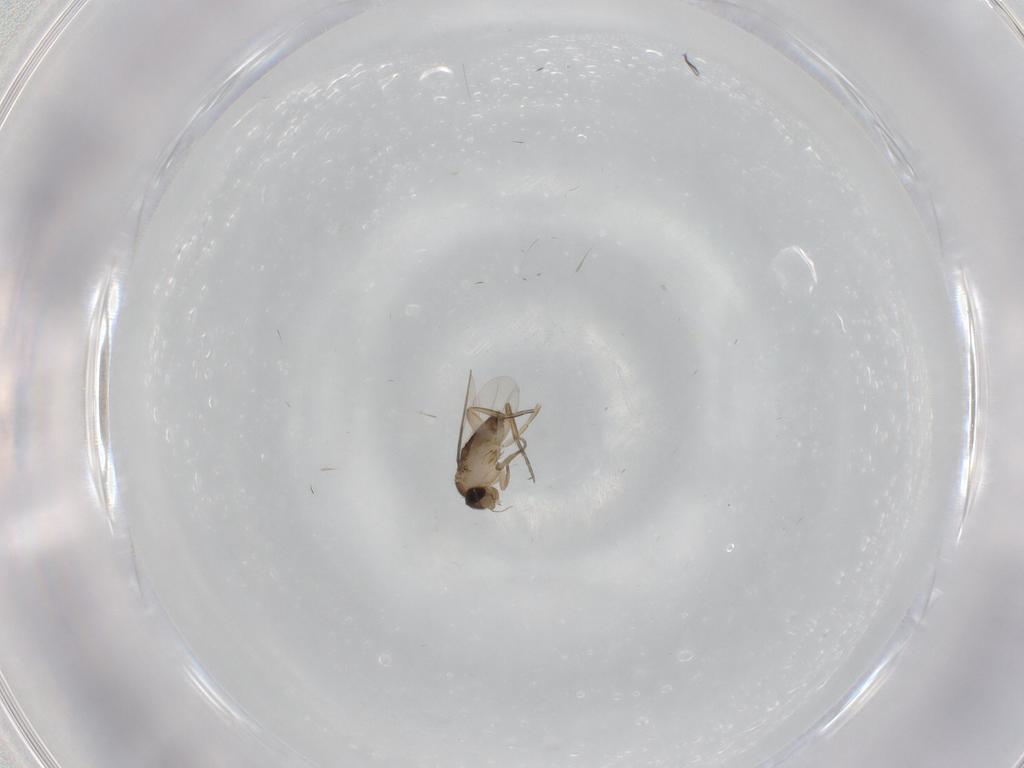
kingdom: Animalia
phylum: Arthropoda
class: Insecta
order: Diptera
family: Phoridae
